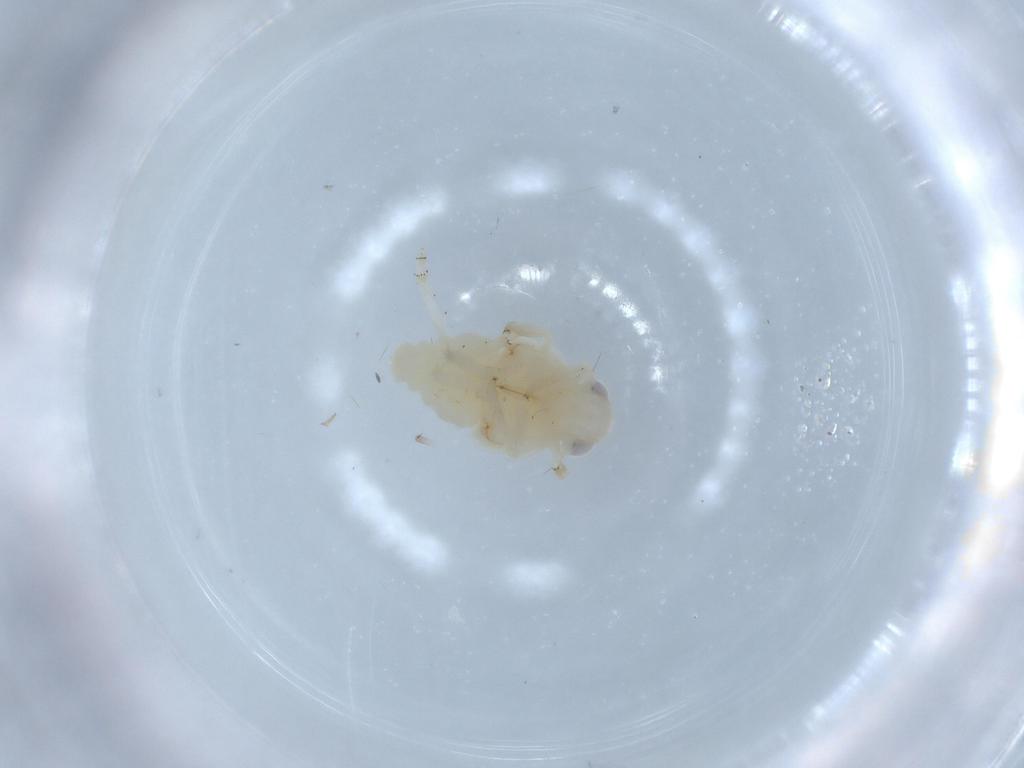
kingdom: Animalia
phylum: Arthropoda
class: Insecta
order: Hemiptera
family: Nogodinidae
